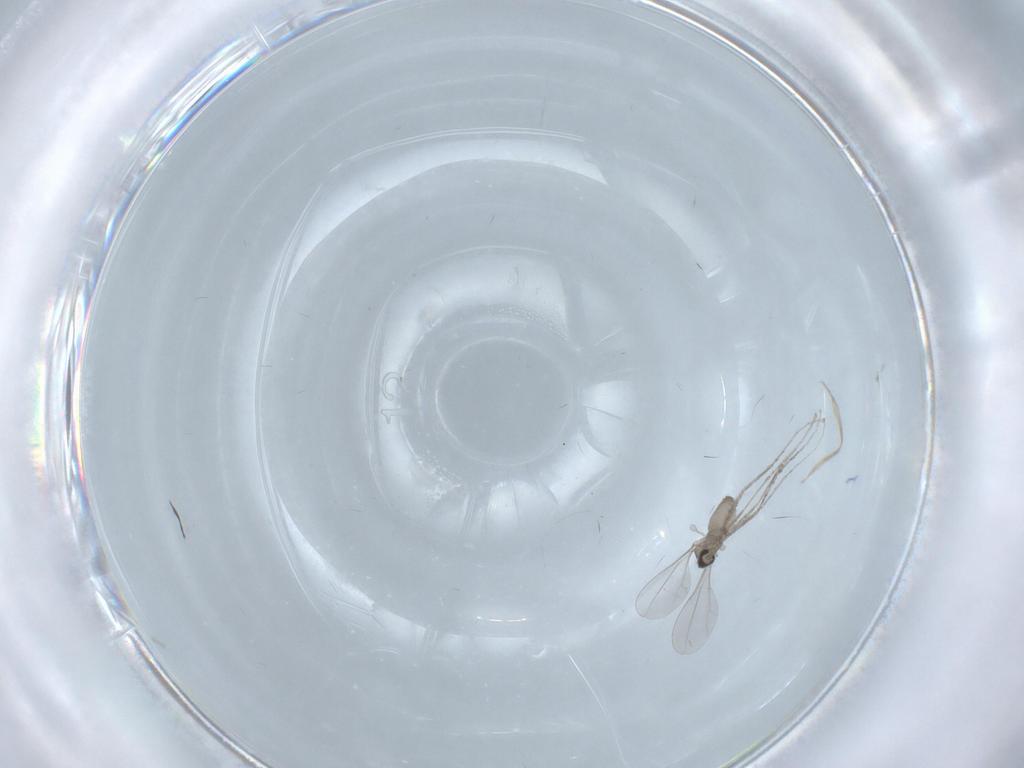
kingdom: Animalia
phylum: Arthropoda
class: Insecta
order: Diptera
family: Cecidomyiidae
